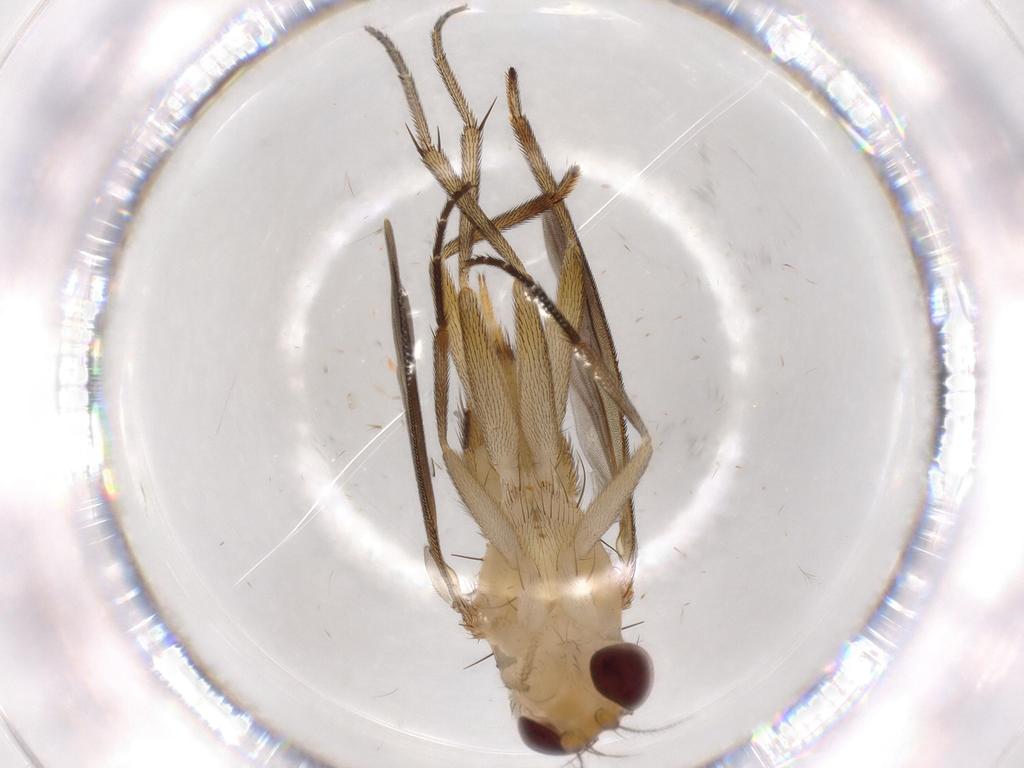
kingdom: Animalia
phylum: Arthropoda
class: Insecta
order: Diptera
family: Clusiidae
